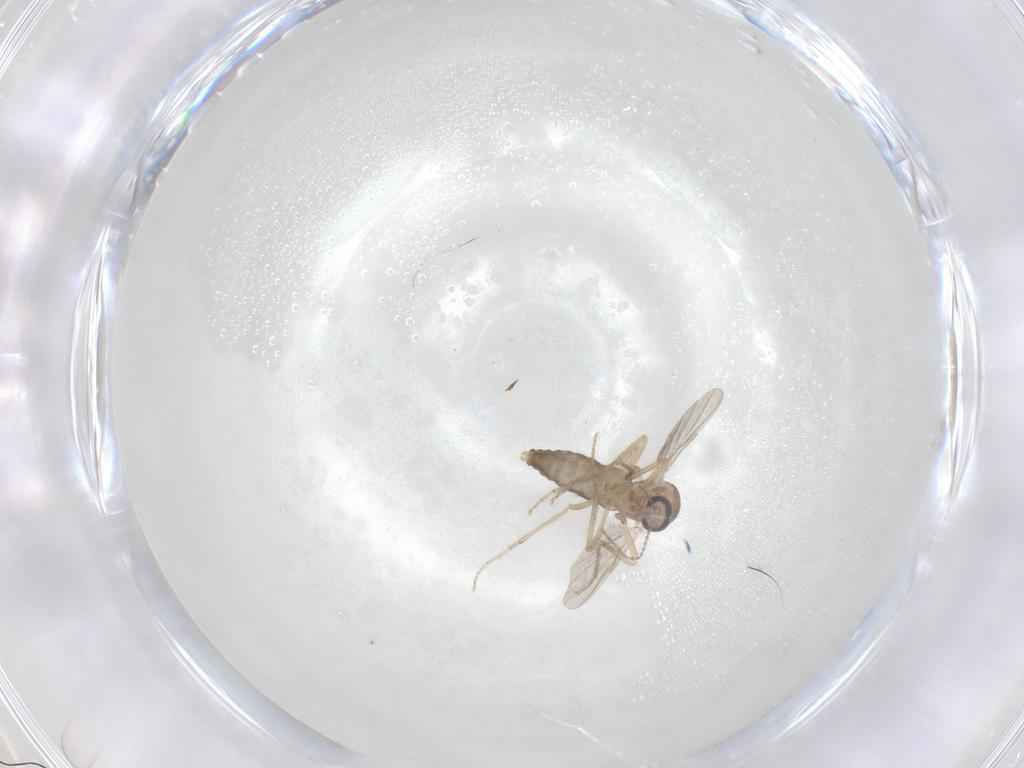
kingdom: Animalia
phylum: Arthropoda
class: Insecta
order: Diptera
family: Ceratopogonidae
